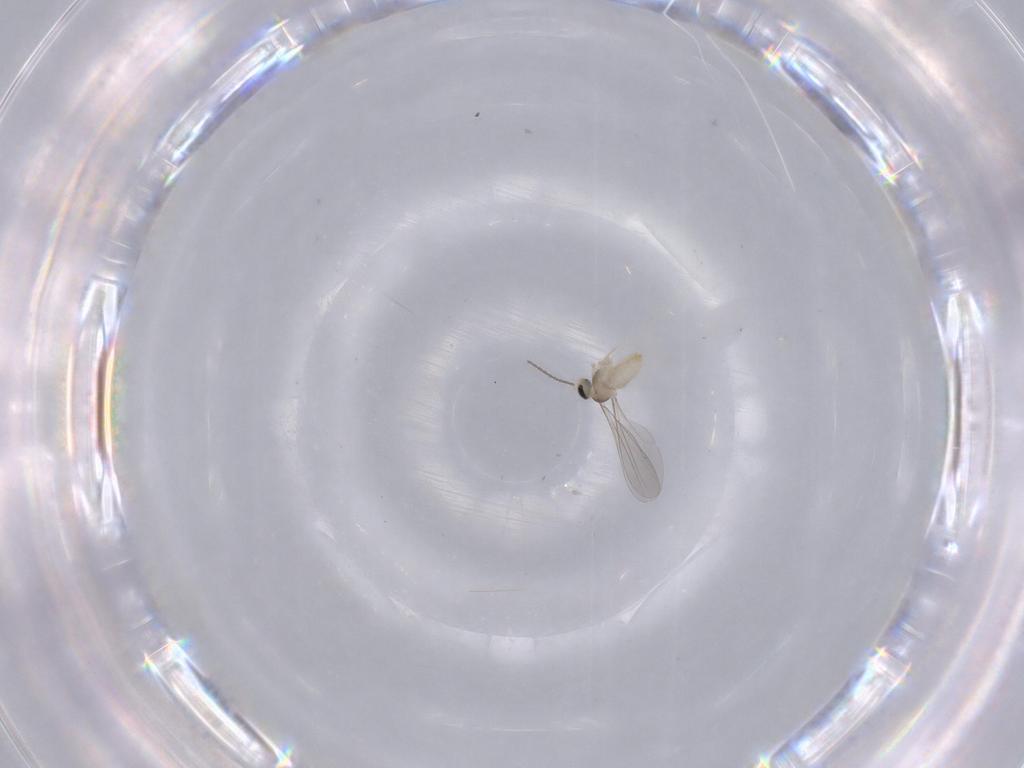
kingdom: Animalia
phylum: Arthropoda
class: Insecta
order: Diptera
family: Cecidomyiidae
